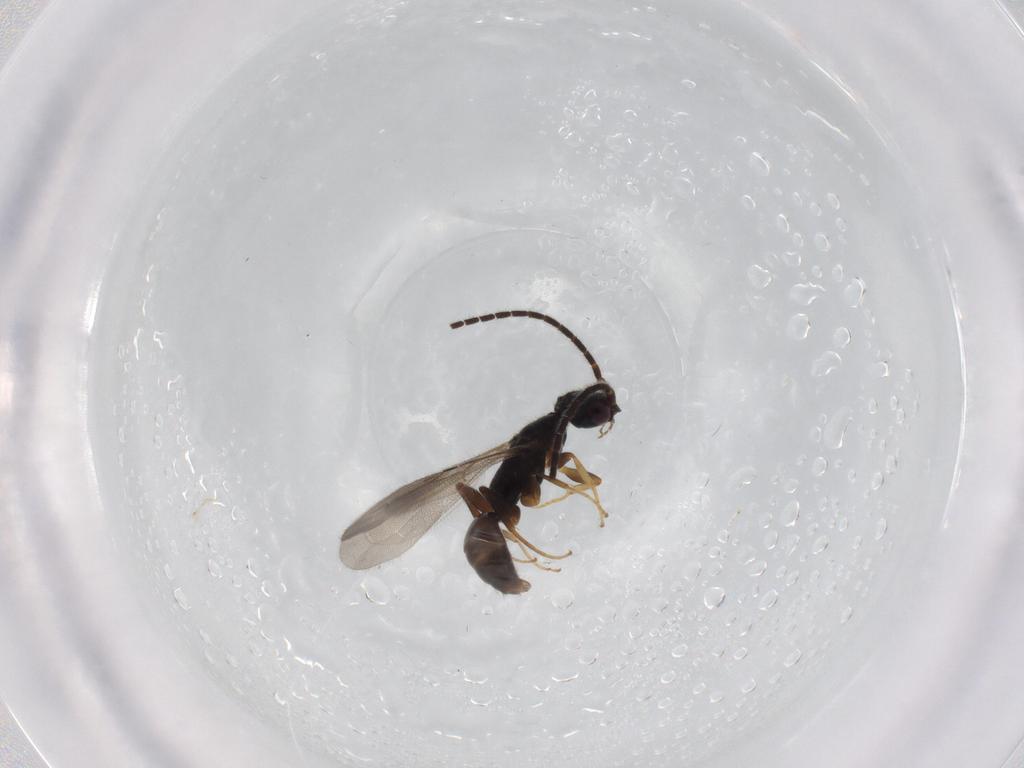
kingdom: Animalia
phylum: Arthropoda
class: Insecta
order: Hymenoptera
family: Bethylidae
